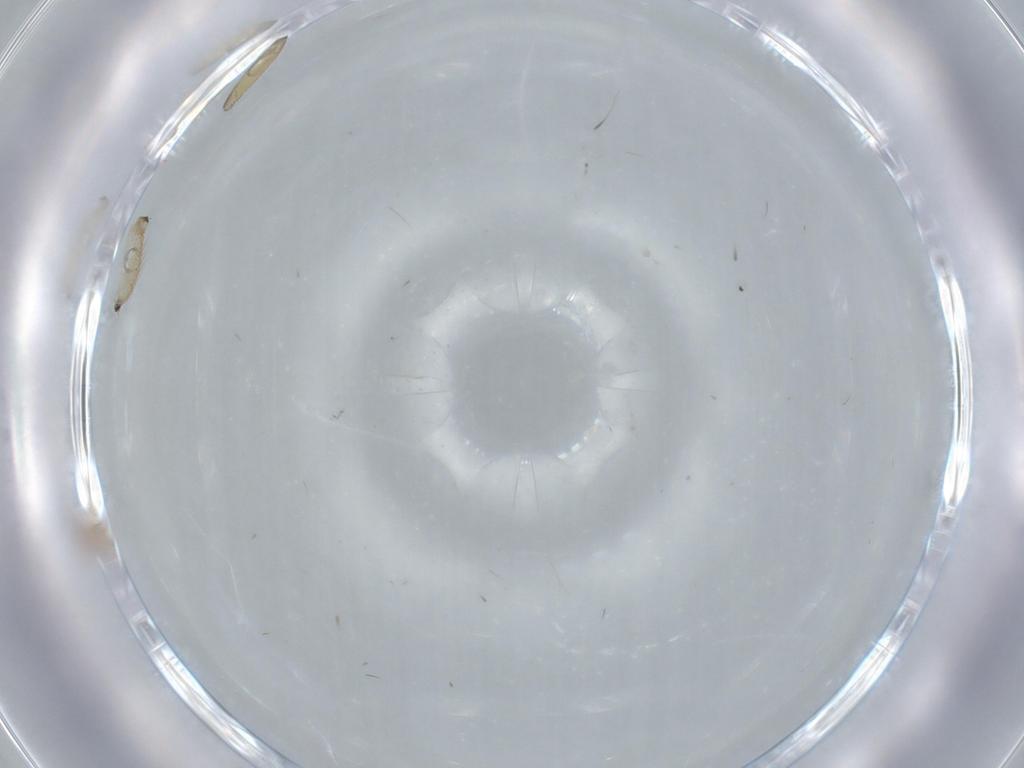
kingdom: Animalia
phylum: Arthropoda
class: Arachnida
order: Mesostigmata
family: Trematuridae
